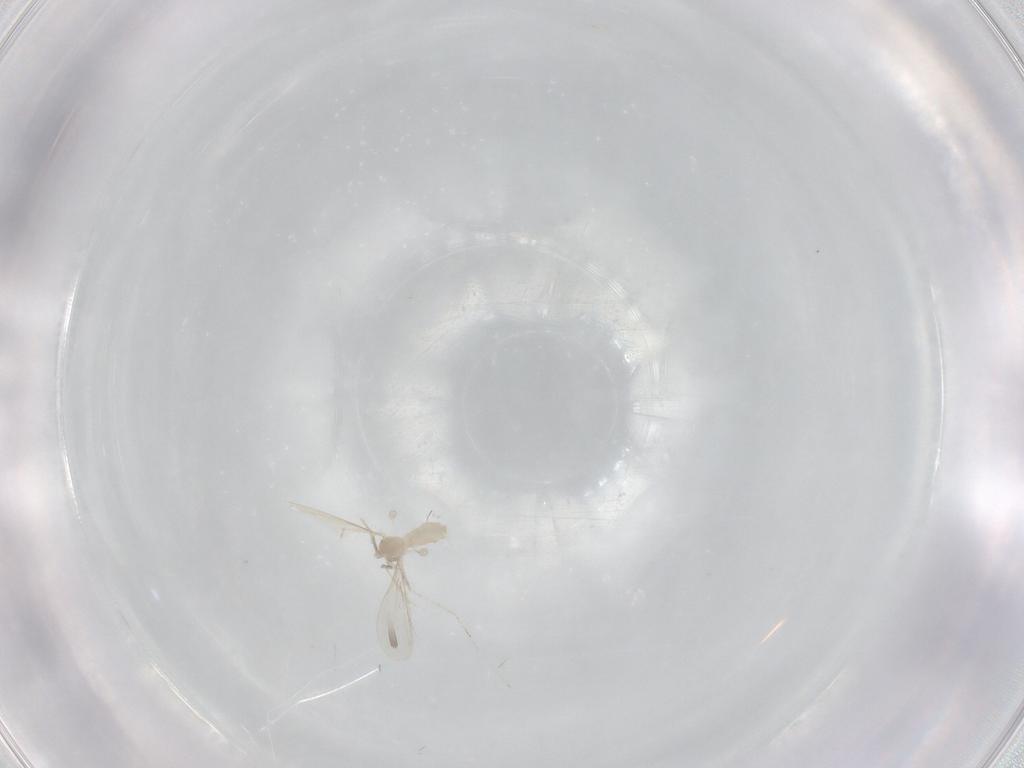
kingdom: Animalia
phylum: Arthropoda
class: Insecta
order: Diptera
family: Cecidomyiidae
